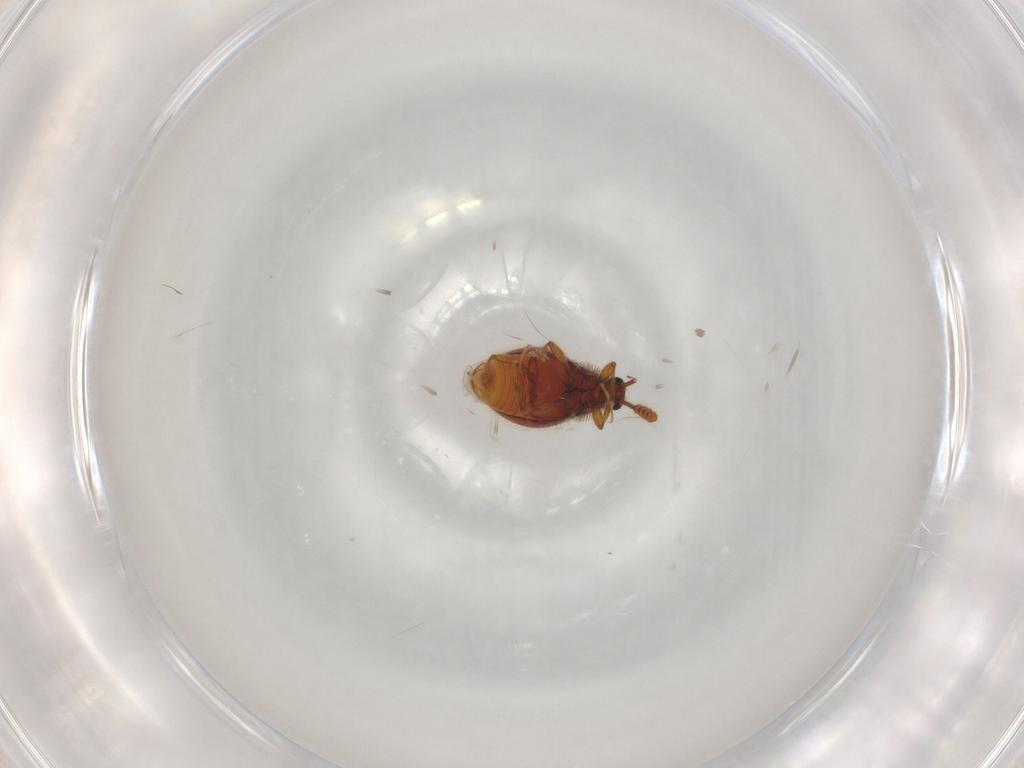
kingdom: Animalia
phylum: Arthropoda
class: Insecta
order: Coleoptera
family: Staphylinidae
